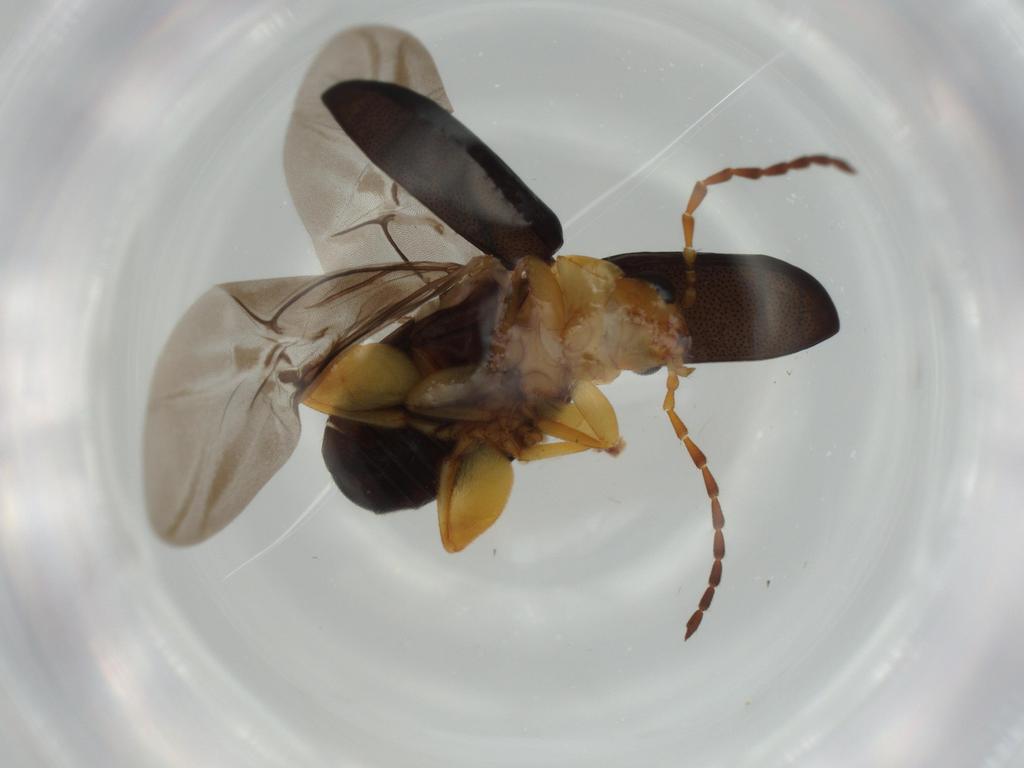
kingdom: Animalia
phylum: Arthropoda
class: Insecta
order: Coleoptera
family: Chrysomelidae
